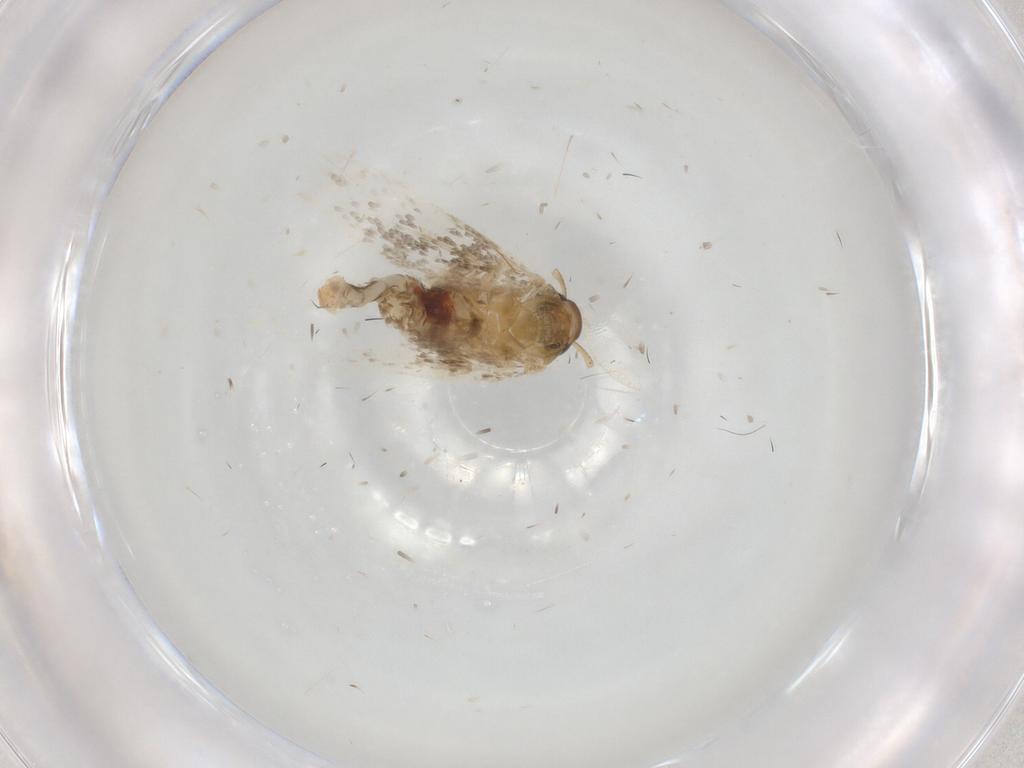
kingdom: Animalia
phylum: Arthropoda
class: Insecta
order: Lepidoptera
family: Cosmopterigidae
